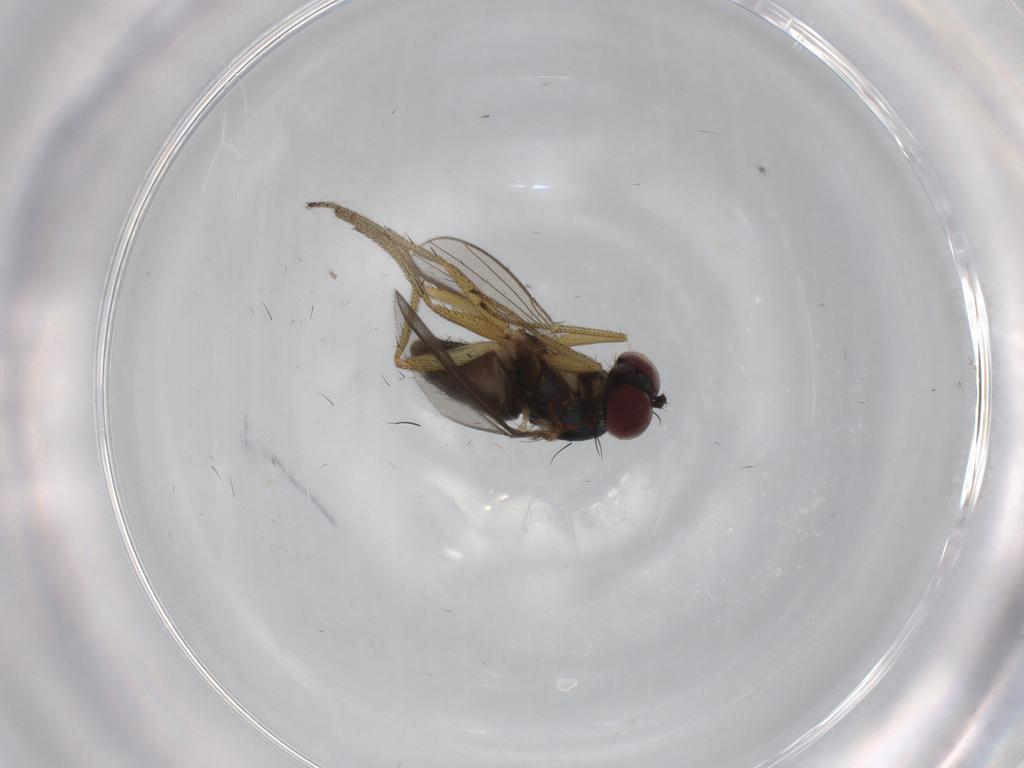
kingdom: Animalia
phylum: Arthropoda
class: Insecta
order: Diptera
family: Dolichopodidae
